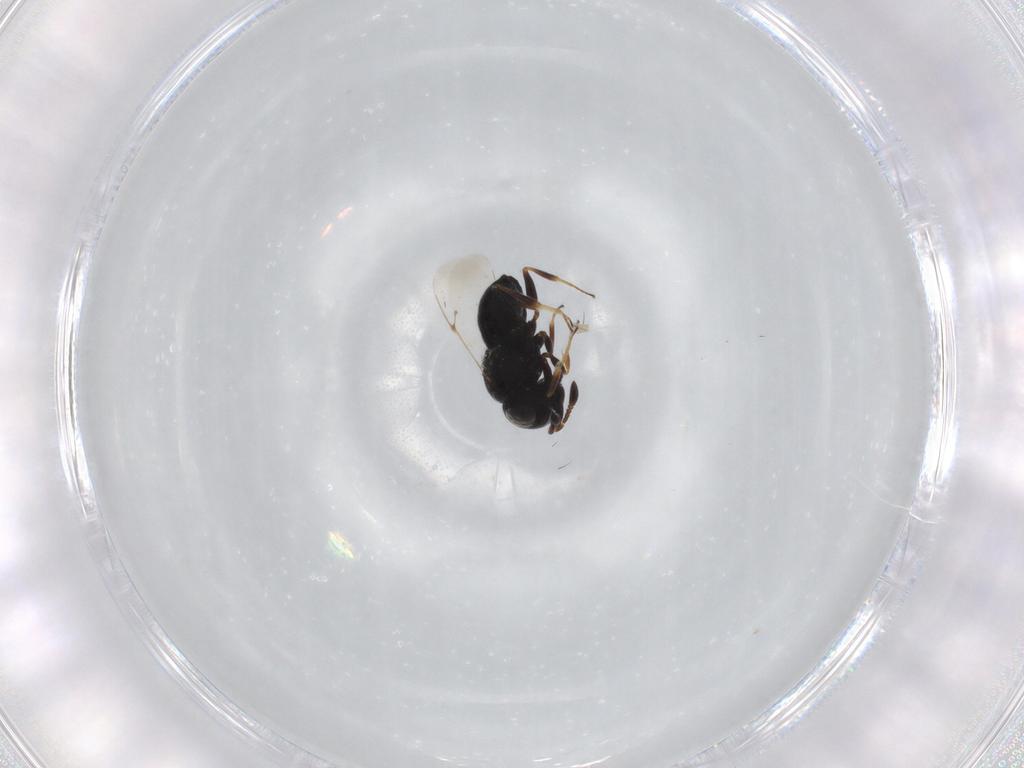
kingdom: Animalia
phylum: Arthropoda
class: Insecta
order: Hymenoptera
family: Scelionidae
